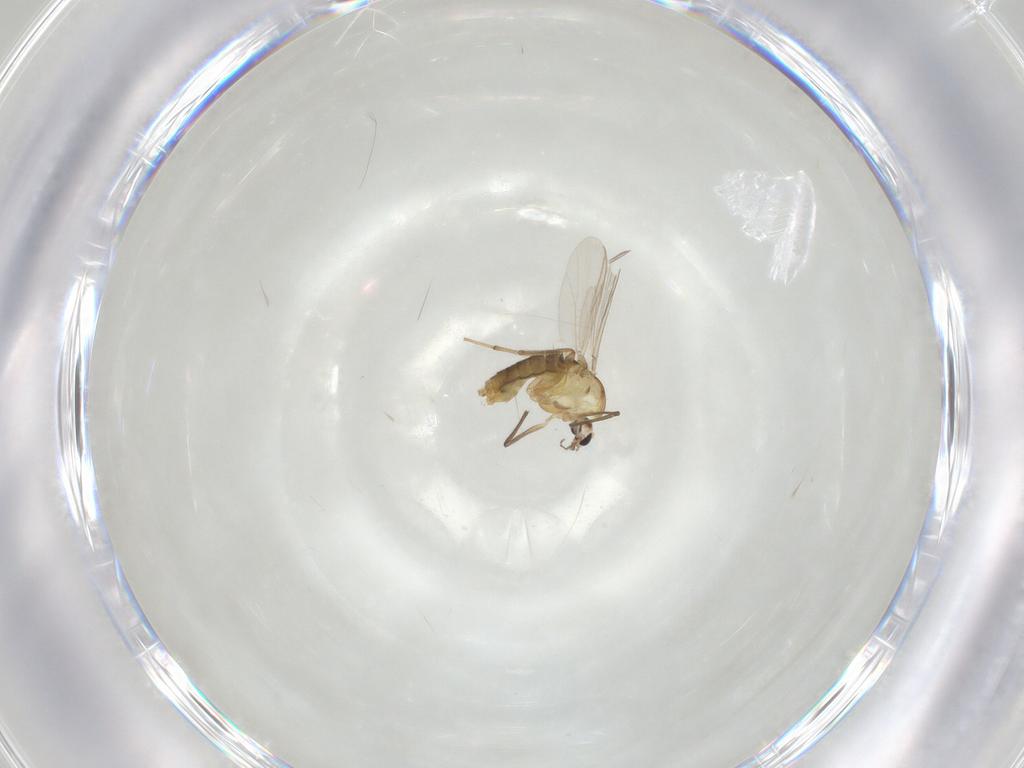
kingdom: Animalia
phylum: Arthropoda
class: Insecta
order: Diptera
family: Chironomidae
